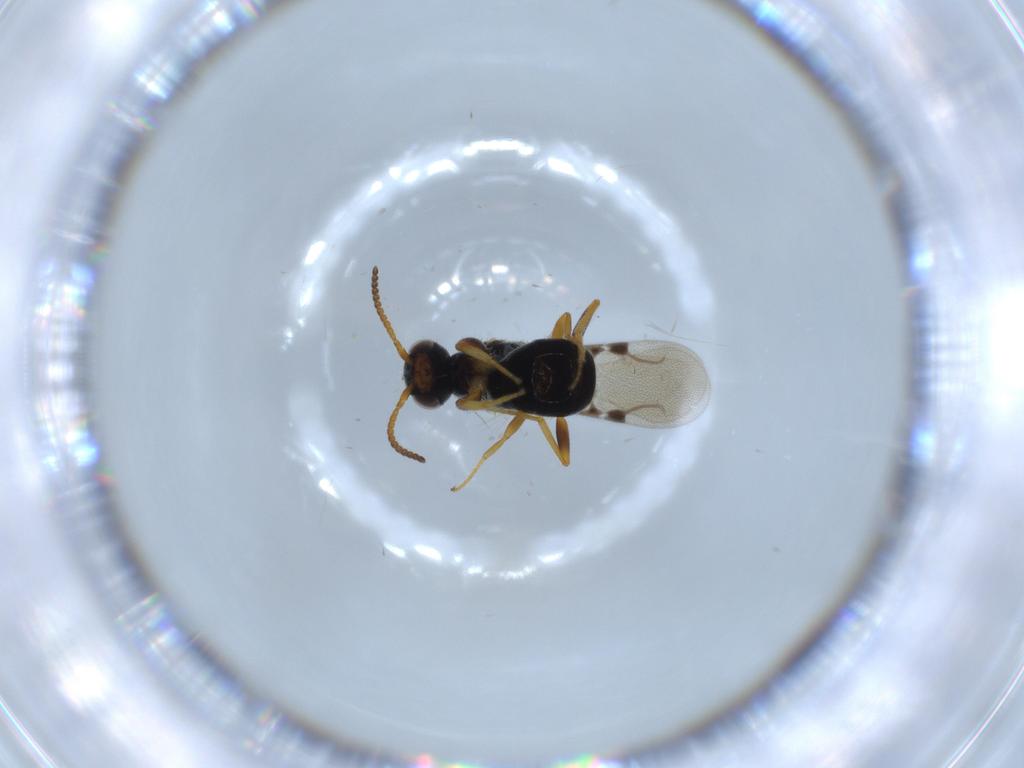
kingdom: Animalia
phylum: Arthropoda
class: Insecta
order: Hymenoptera
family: Bethylidae
